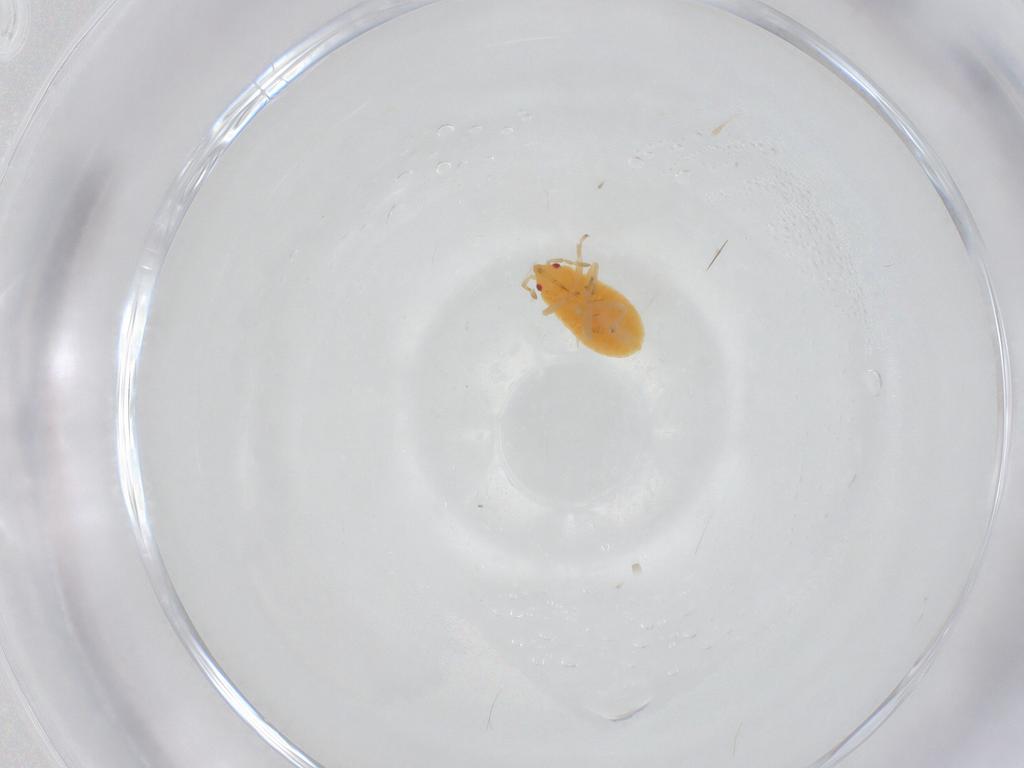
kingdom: Animalia
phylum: Arthropoda
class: Insecta
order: Hemiptera
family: Anthocoridae
